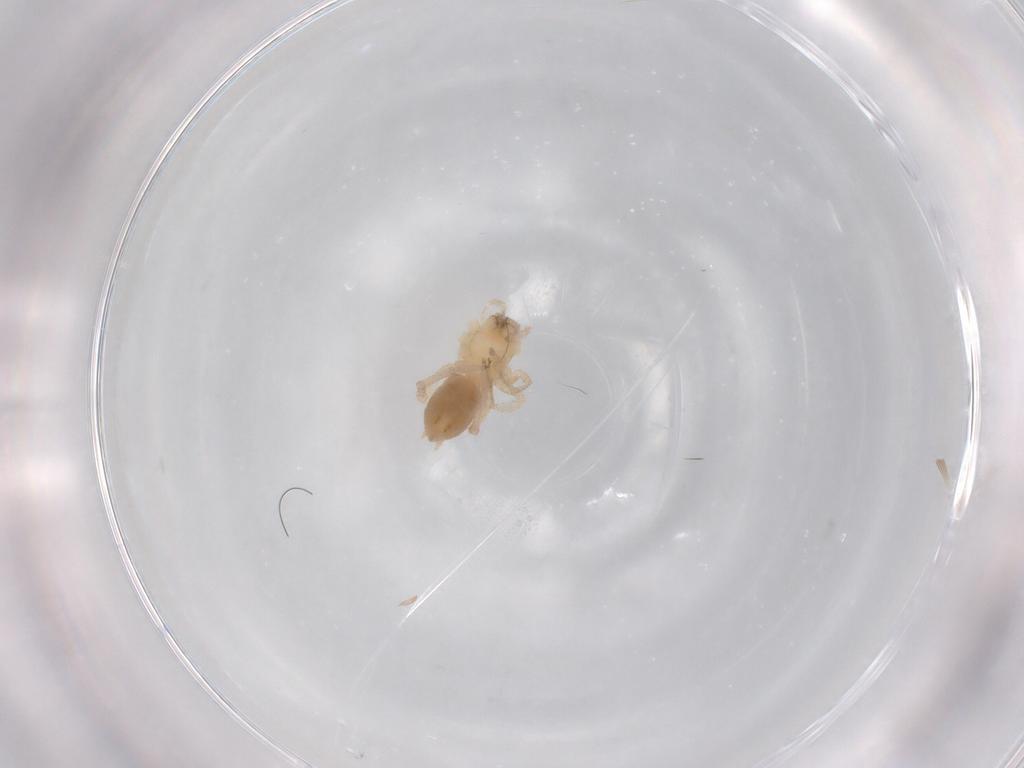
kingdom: Animalia
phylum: Arthropoda
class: Arachnida
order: Araneae
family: Anyphaenidae
